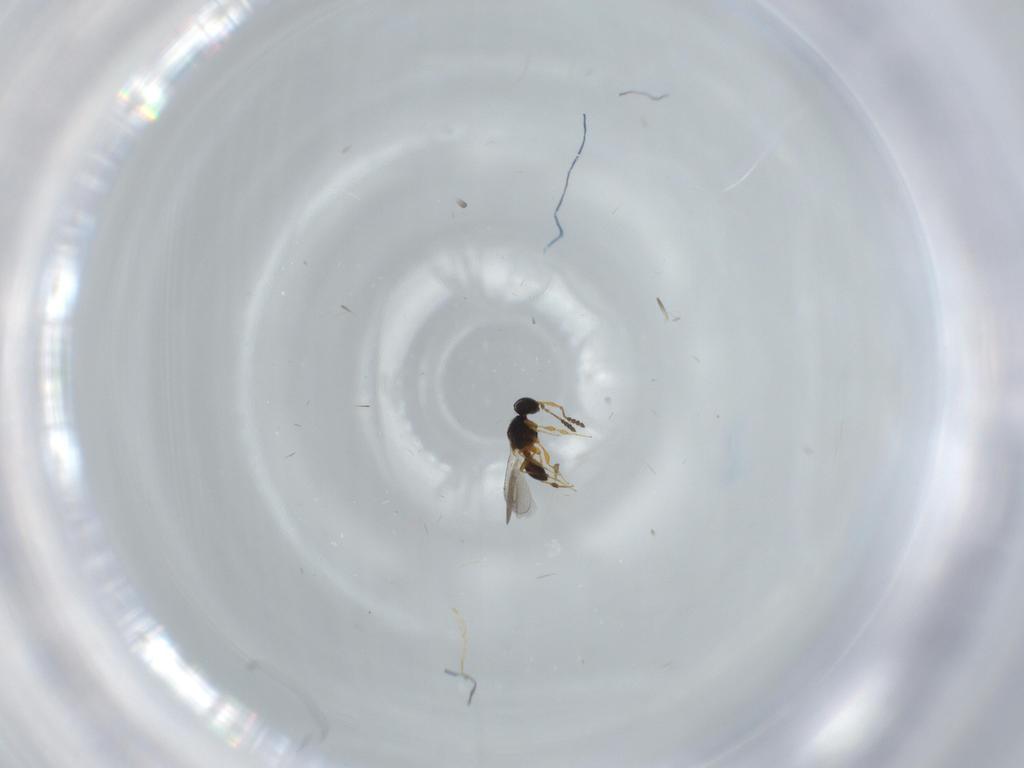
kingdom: Animalia
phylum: Arthropoda
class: Insecta
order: Hymenoptera
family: Platygastridae
